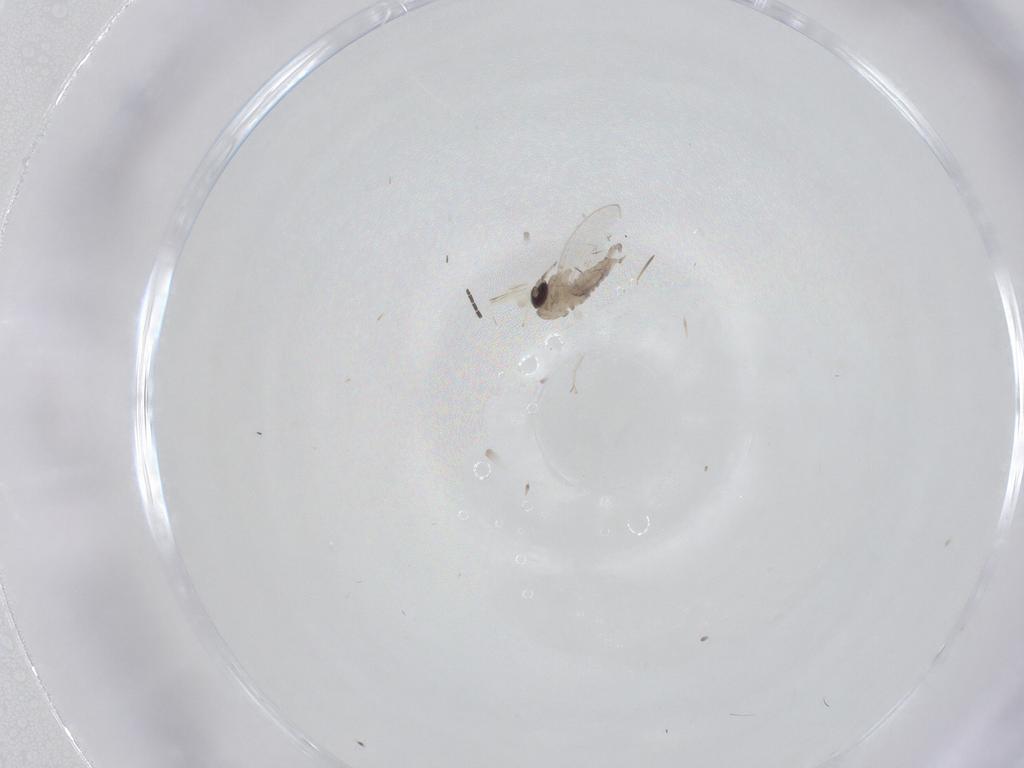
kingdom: Animalia
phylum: Arthropoda
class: Insecta
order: Diptera
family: Psychodidae
